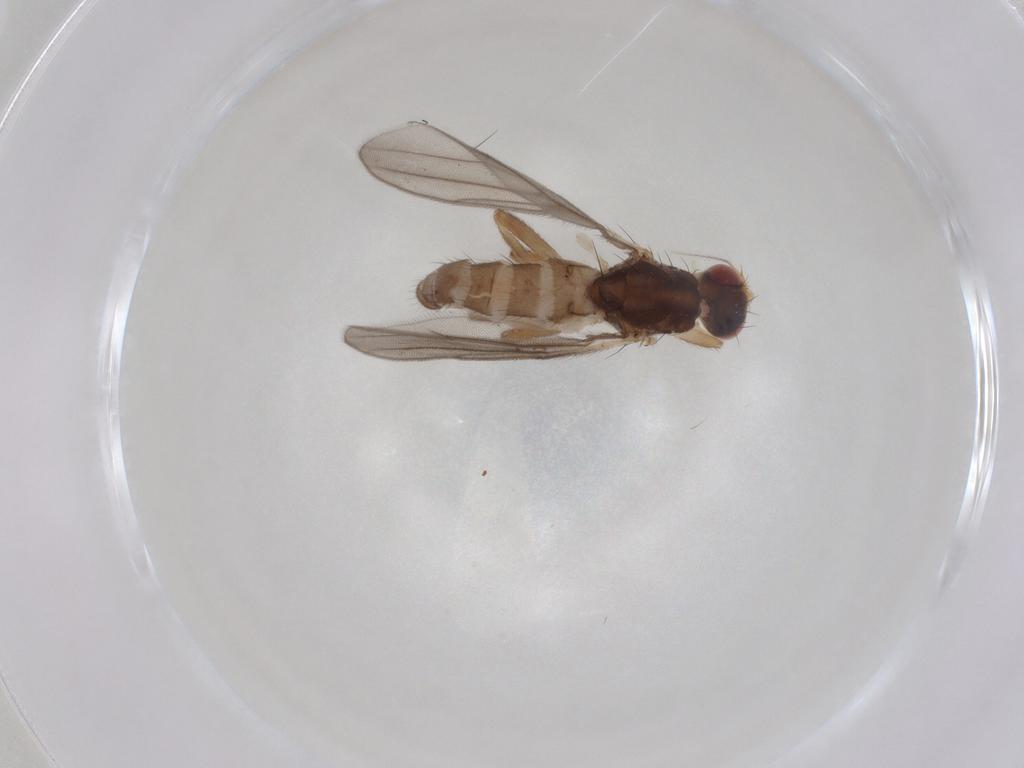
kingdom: Animalia
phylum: Arthropoda
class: Insecta
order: Diptera
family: Chloropidae
